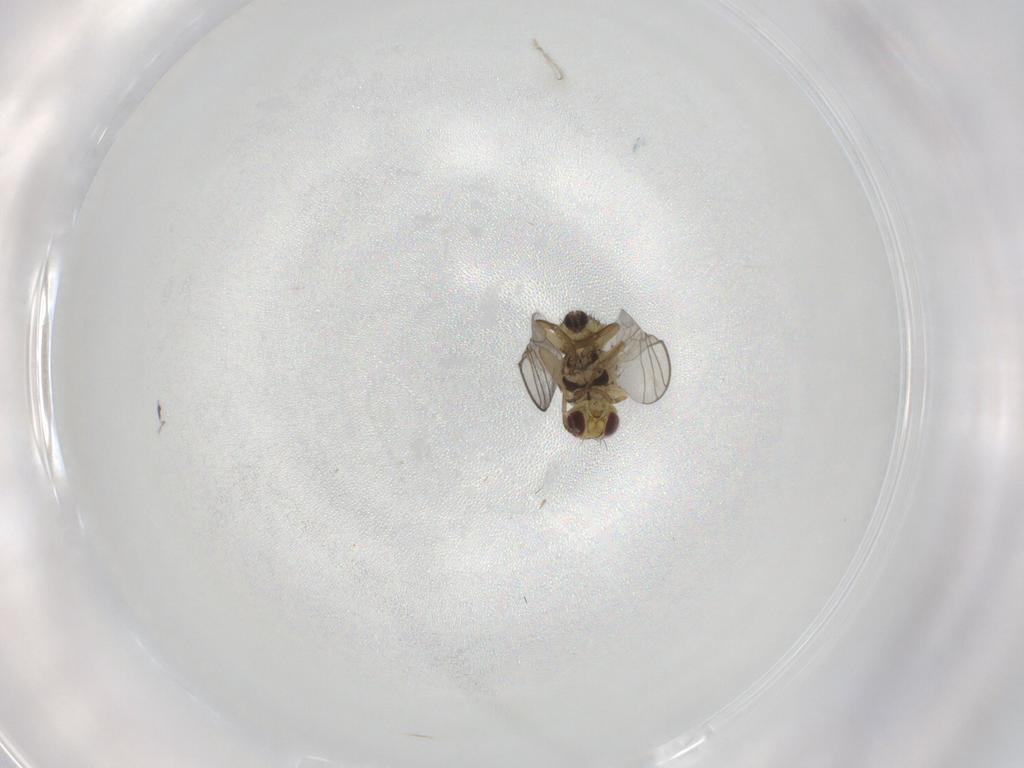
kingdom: Animalia
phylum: Arthropoda
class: Insecta
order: Diptera
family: Agromyzidae
